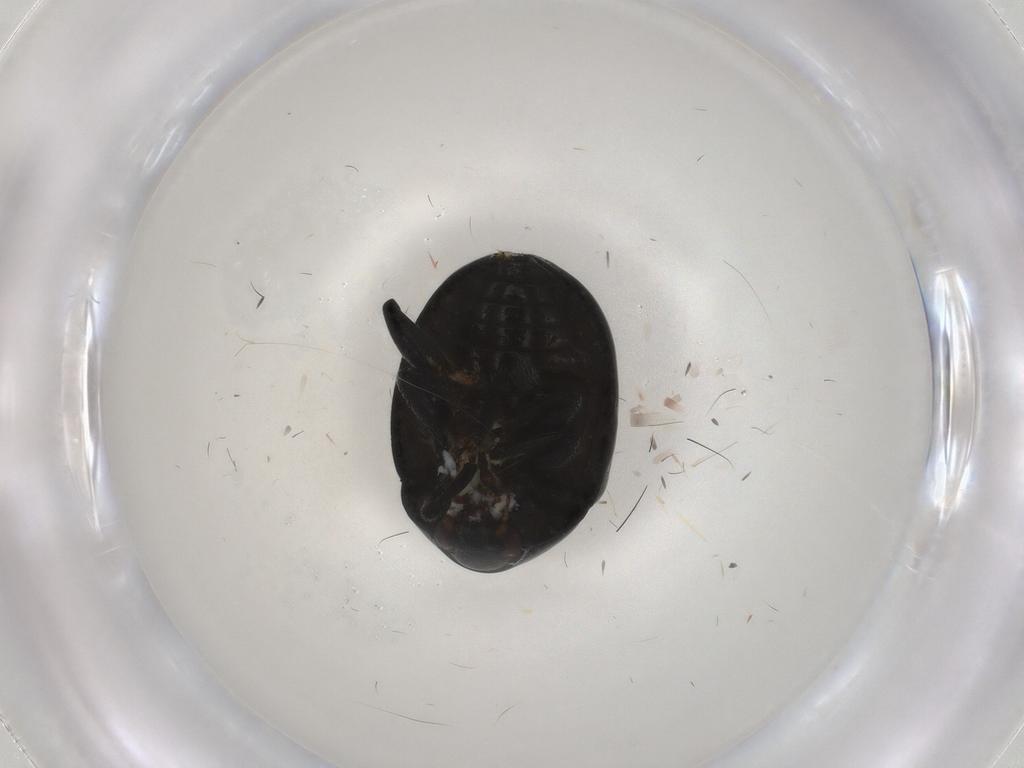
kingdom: Animalia
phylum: Arthropoda
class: Insecta
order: Coleoptera
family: Chrysomelidae
